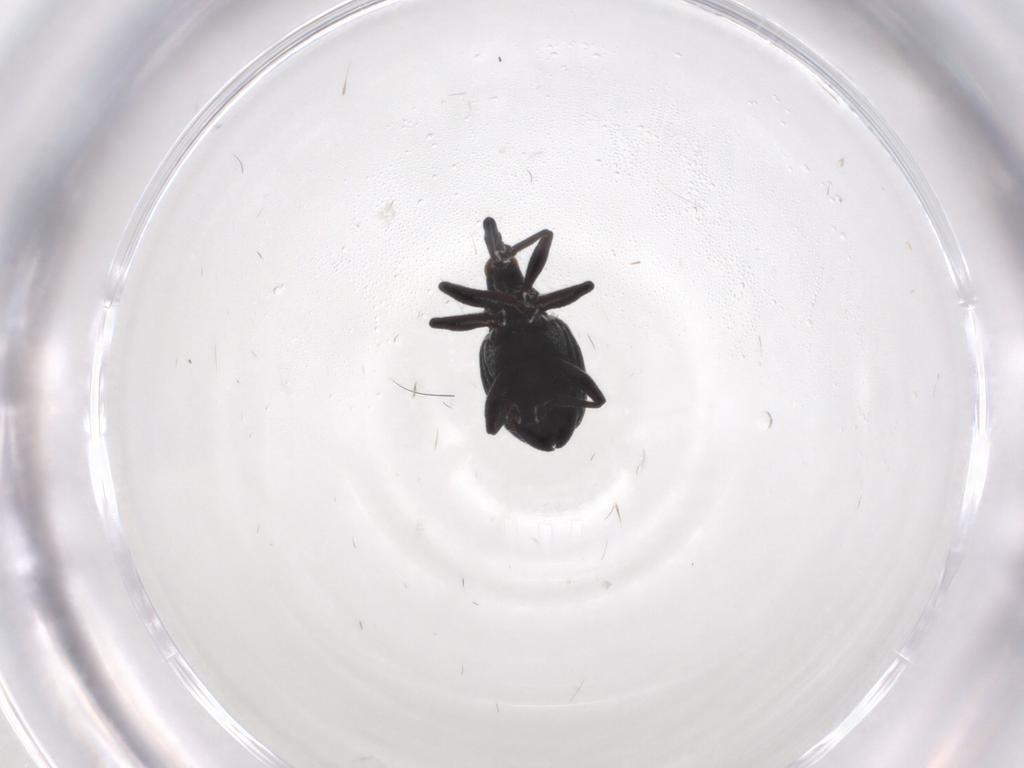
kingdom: Animalia
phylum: Arthropoda
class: Insecta
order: Coleoptera
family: Brentidae
